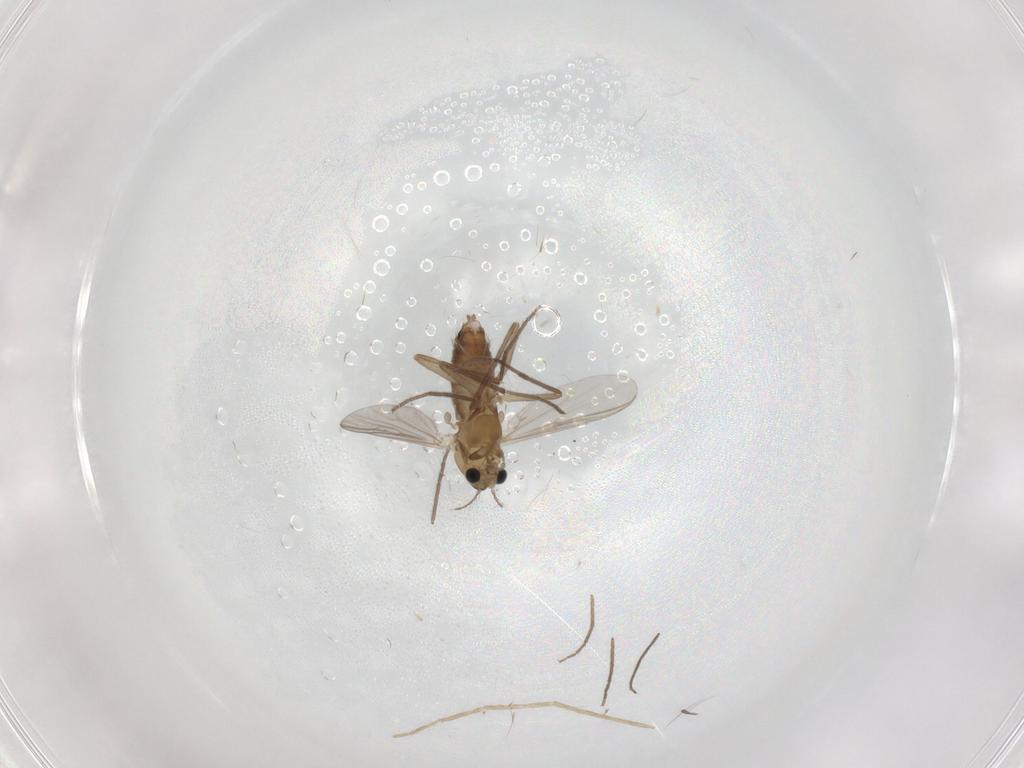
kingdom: Animalia
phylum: Arthropoda
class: Insecta
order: Diptera
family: Chironomidae
